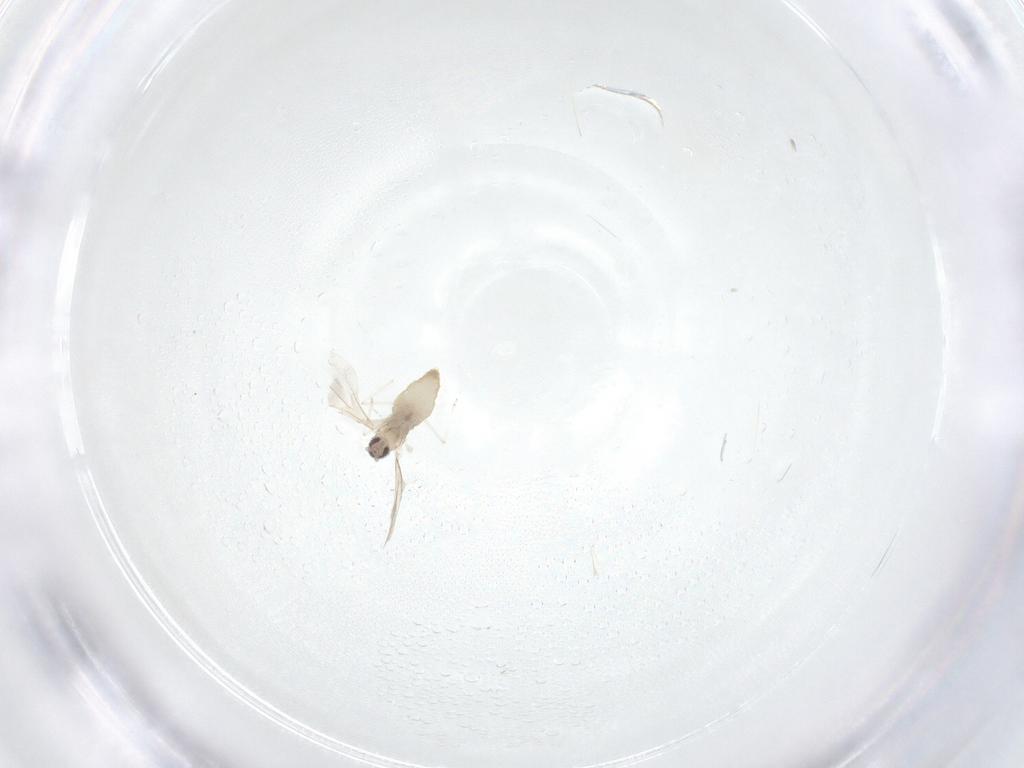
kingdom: Animalia
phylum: Arthropoda
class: Insecta
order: Diptera
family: Cecidomyiidae
